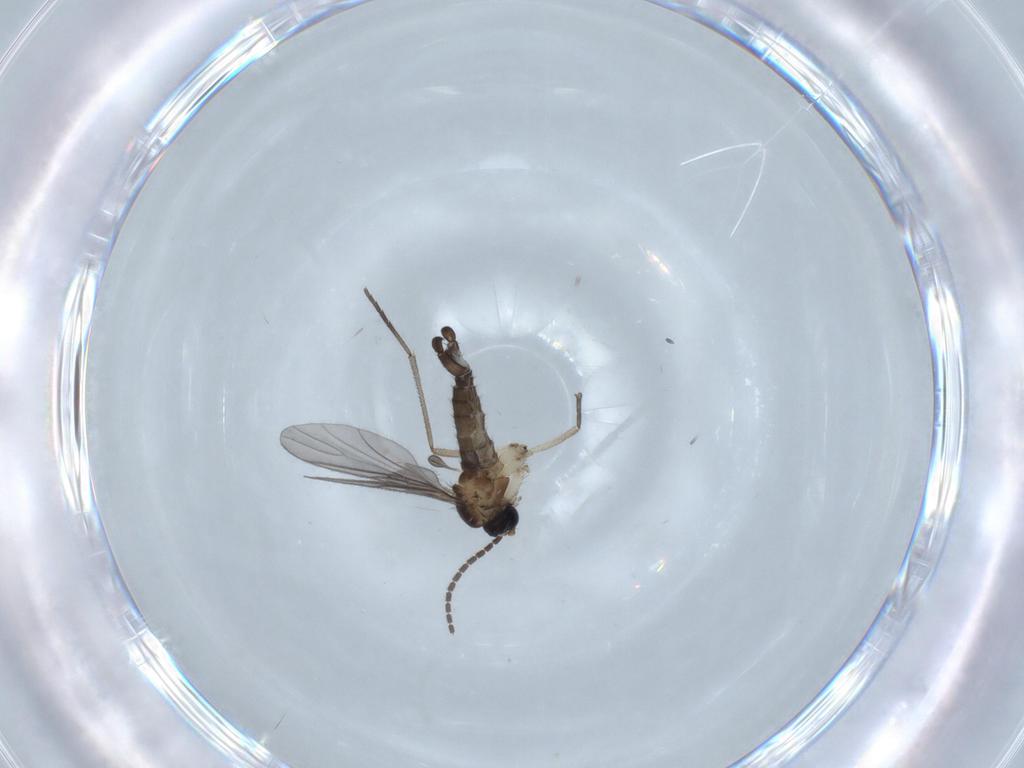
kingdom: Animalia
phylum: Arthropoda
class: Insecta
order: Diptera
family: Sciaridae
